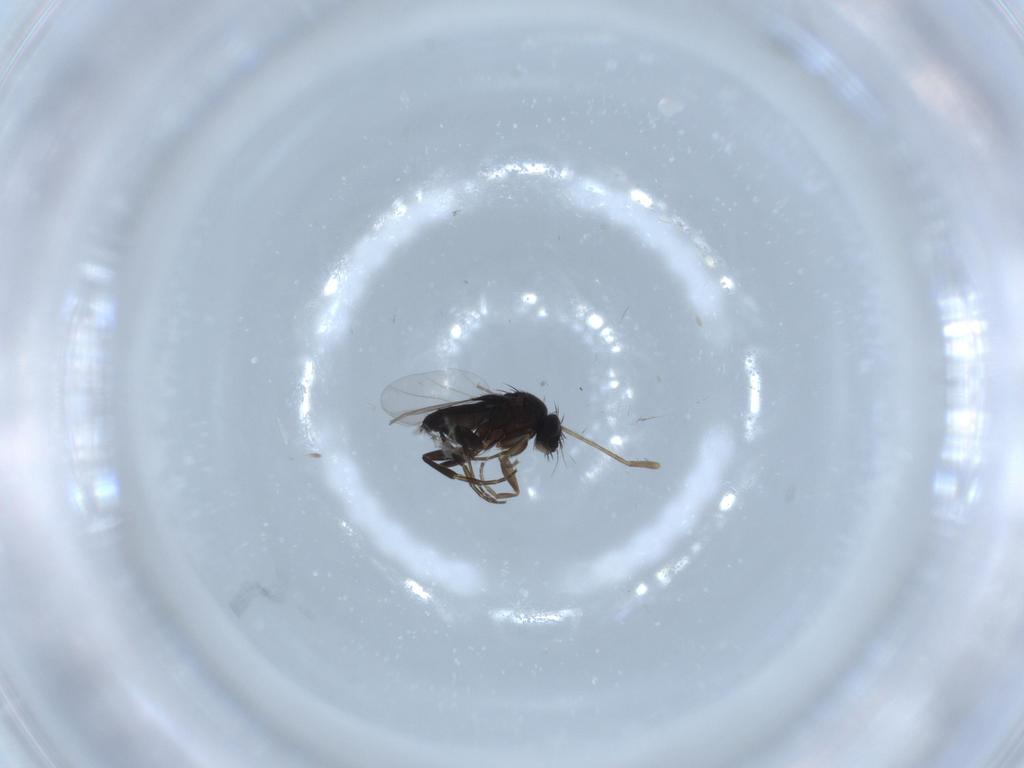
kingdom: Animalia
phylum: Arthropoda
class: Insecta
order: Diptera
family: Phoridae
